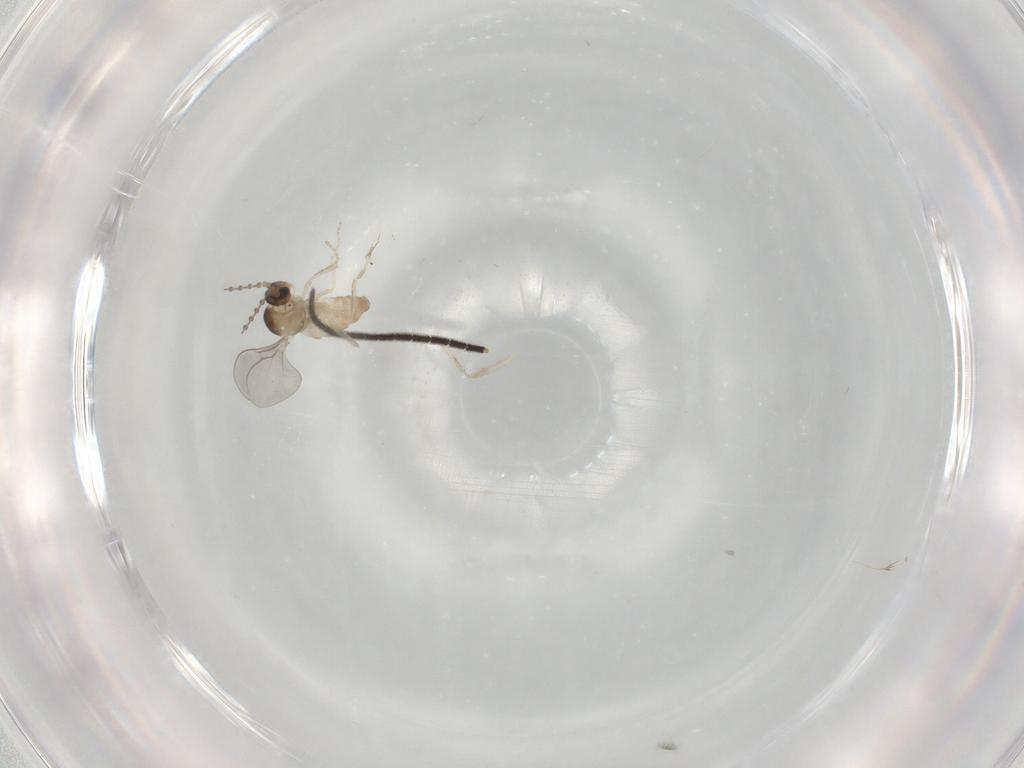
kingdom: Animalia
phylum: Arthropoda
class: Insecta
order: Diptera
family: Cecidomyiidae
